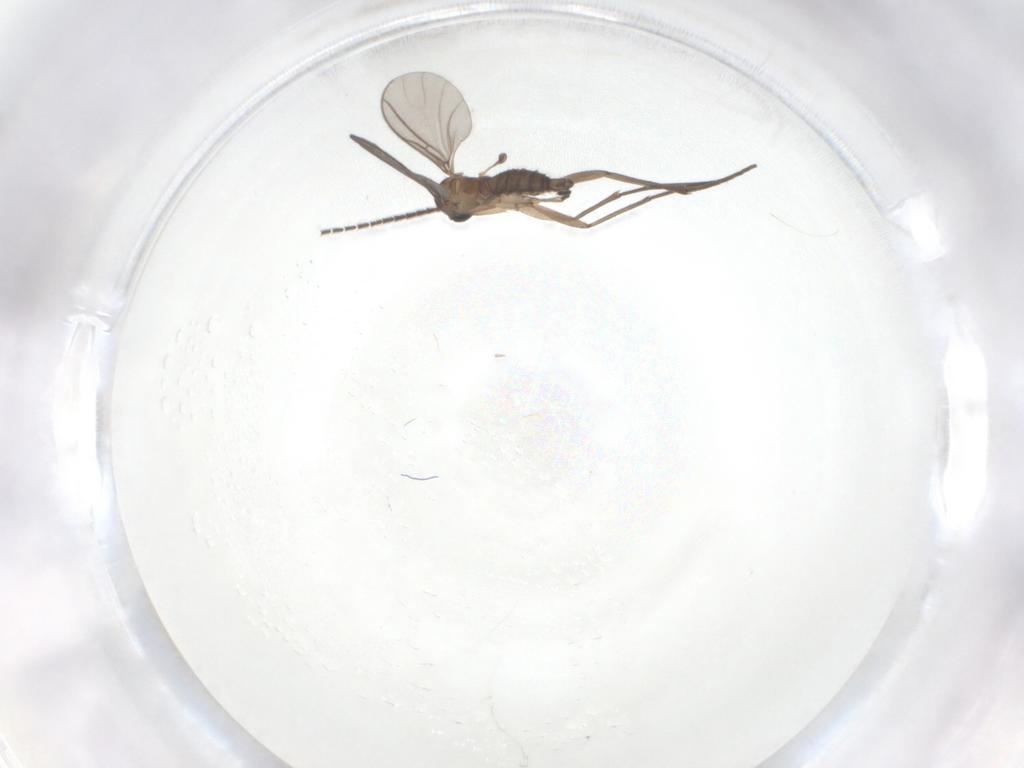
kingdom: Animalia
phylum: Arthropoda
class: Insecta
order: Diptera
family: Sciaridae
